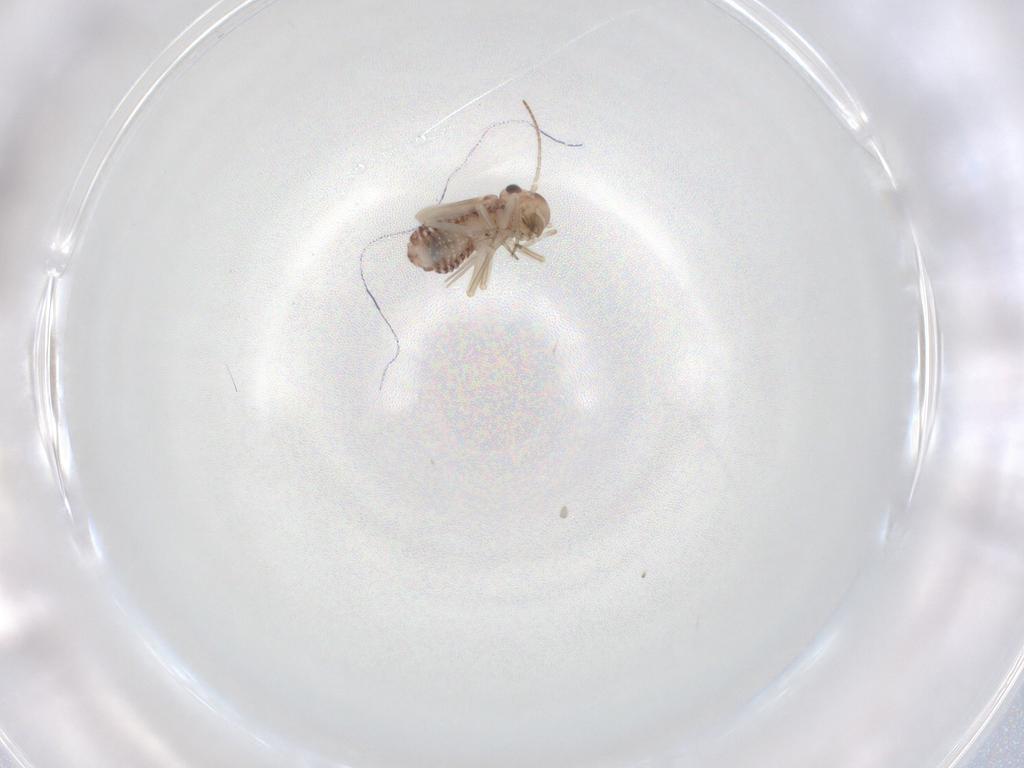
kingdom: Animalia
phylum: Arthropoda
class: Insecta
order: Psocodea
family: Peripsocidae
